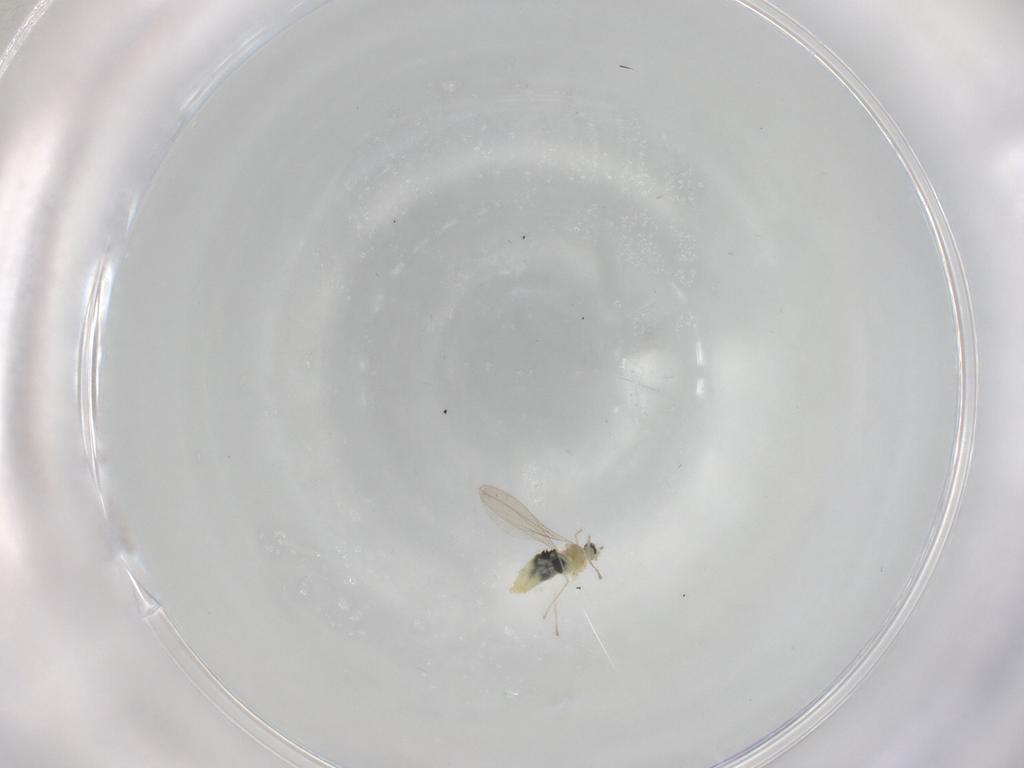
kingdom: Animalia
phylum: Arthropoda
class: Insecta
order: Diptera
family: Cecidomyiidae
